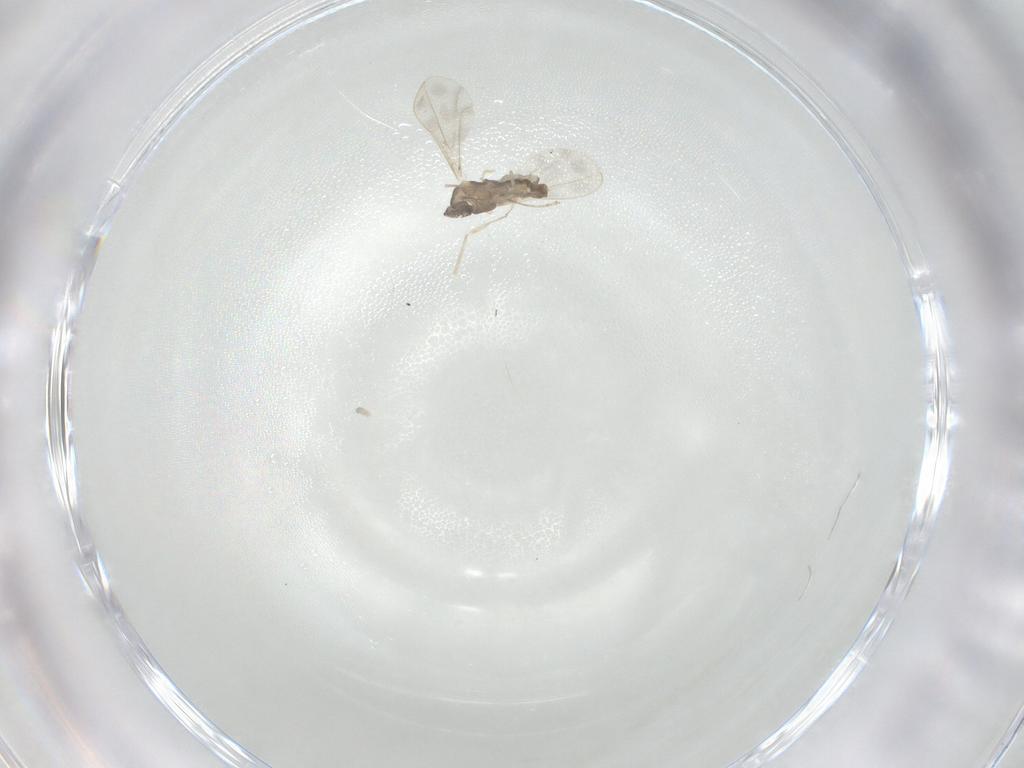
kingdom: Animalia
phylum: Arthropoda
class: Insecta
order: Diptera
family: Cecidomyiidae
